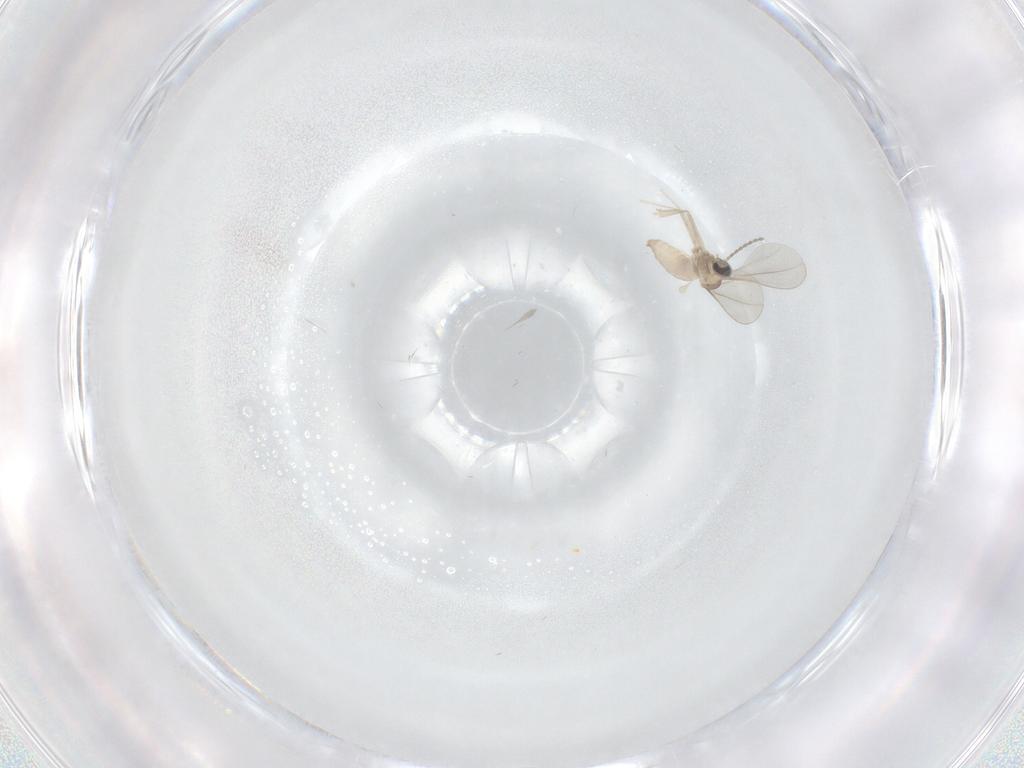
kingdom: Animalia
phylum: Arthropoda
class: Insecta
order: Diptera
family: Cecidomyiidae
